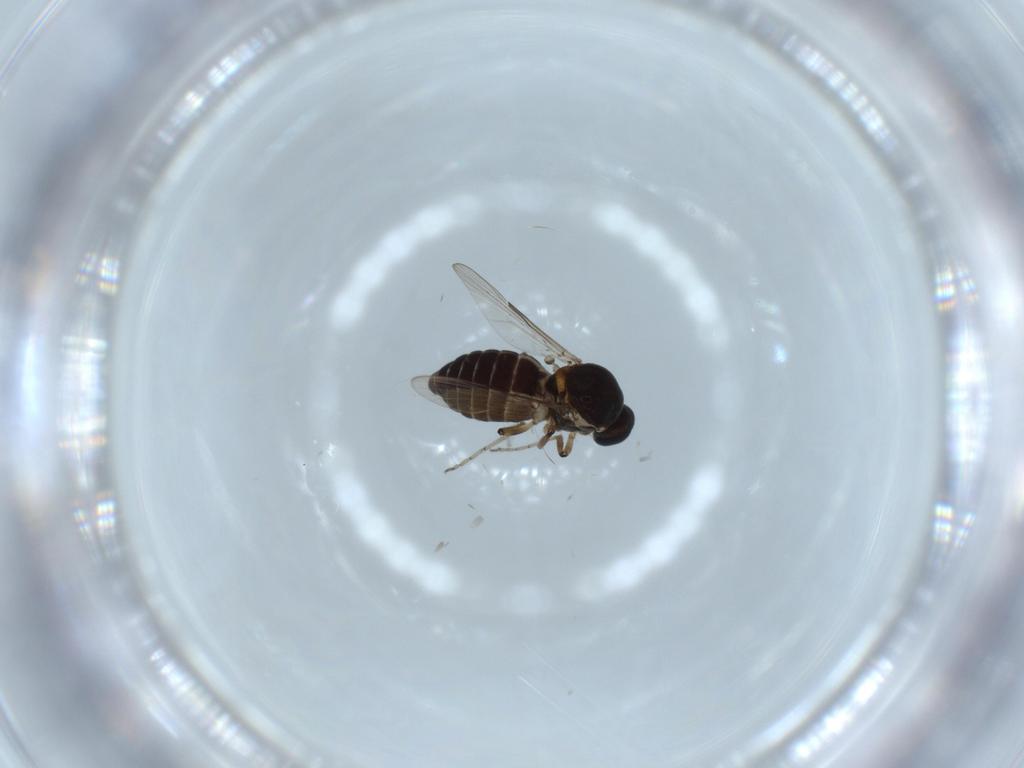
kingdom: Animalia
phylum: Arthropoda
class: Insecta
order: Diptera
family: Ceratopogonidae
